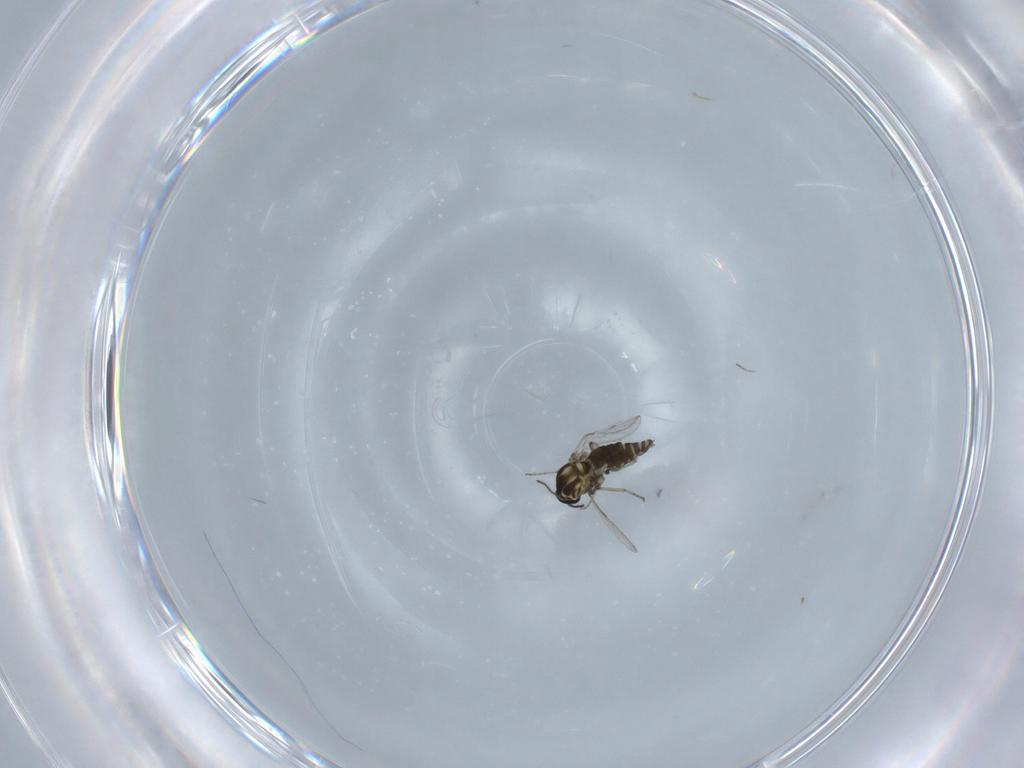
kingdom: Animalia
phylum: Arthropoda
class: Insecta
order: Diptera
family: Ceratopogonidae
